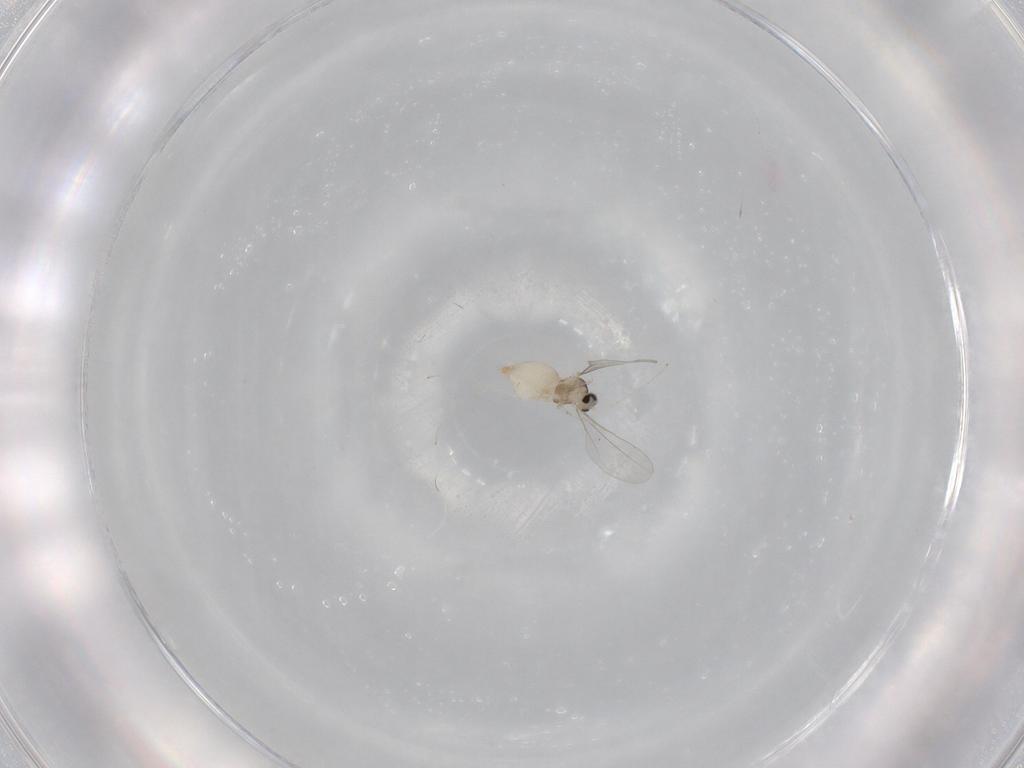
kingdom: Animalia
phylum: Arthropoda
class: Insecta
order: Diptera
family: Cecidomyiidae
